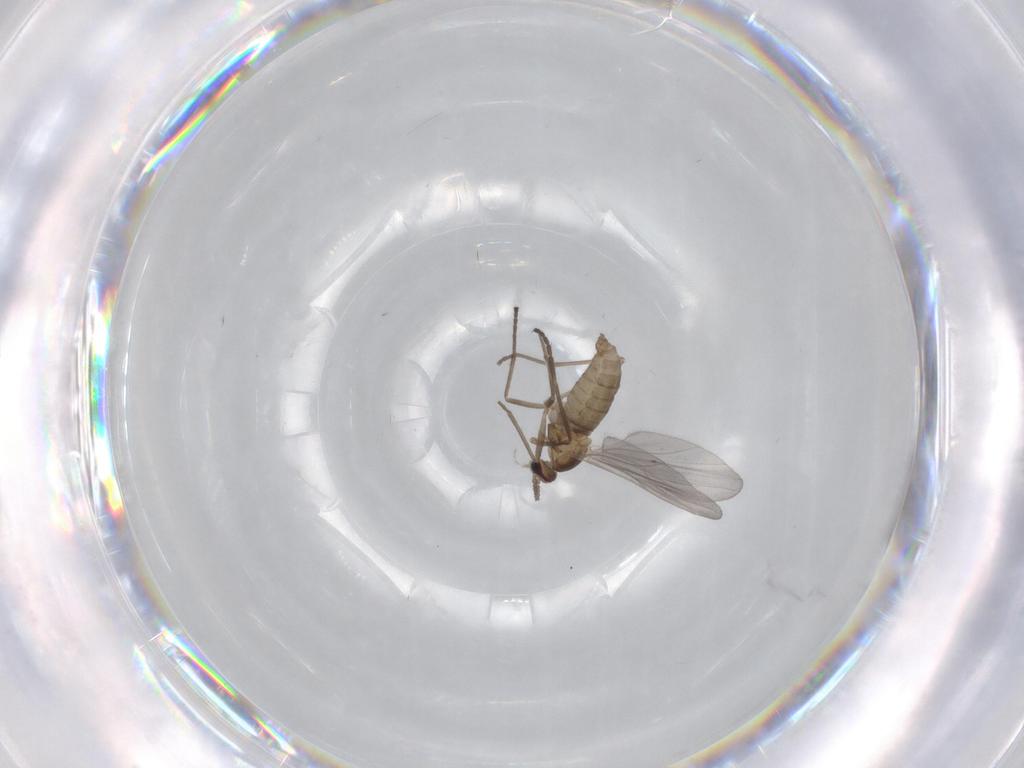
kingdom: Animalia
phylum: Arthropoda
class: Insecta
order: Diptera
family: Cecidomyiidae
